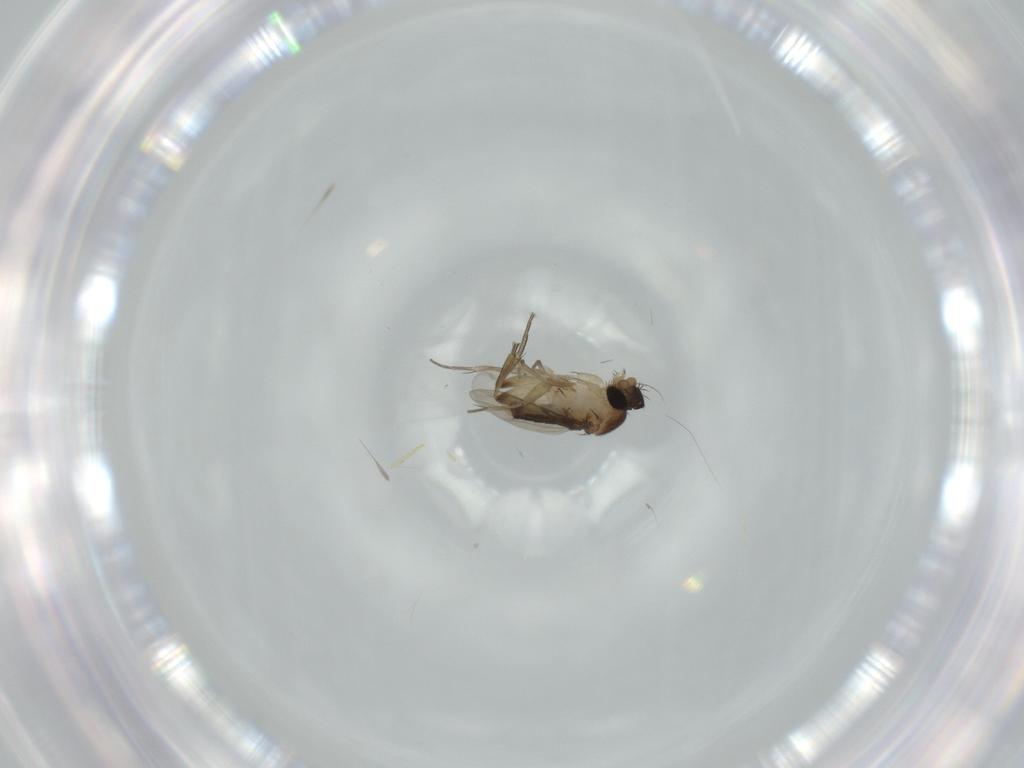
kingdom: Animalia
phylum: Arthropoda
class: Insecta
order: Diptera
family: Phoridae
